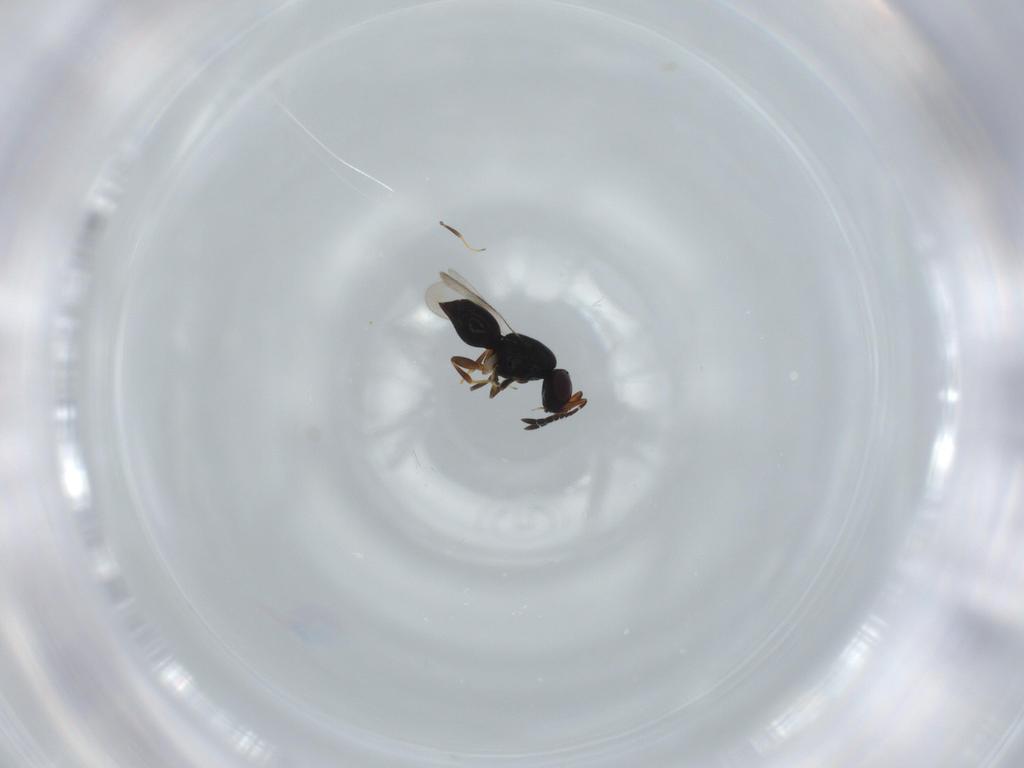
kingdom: Animalia
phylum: Arthropoda
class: Insecta
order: Hymenoptera
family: Ceraphronidae
